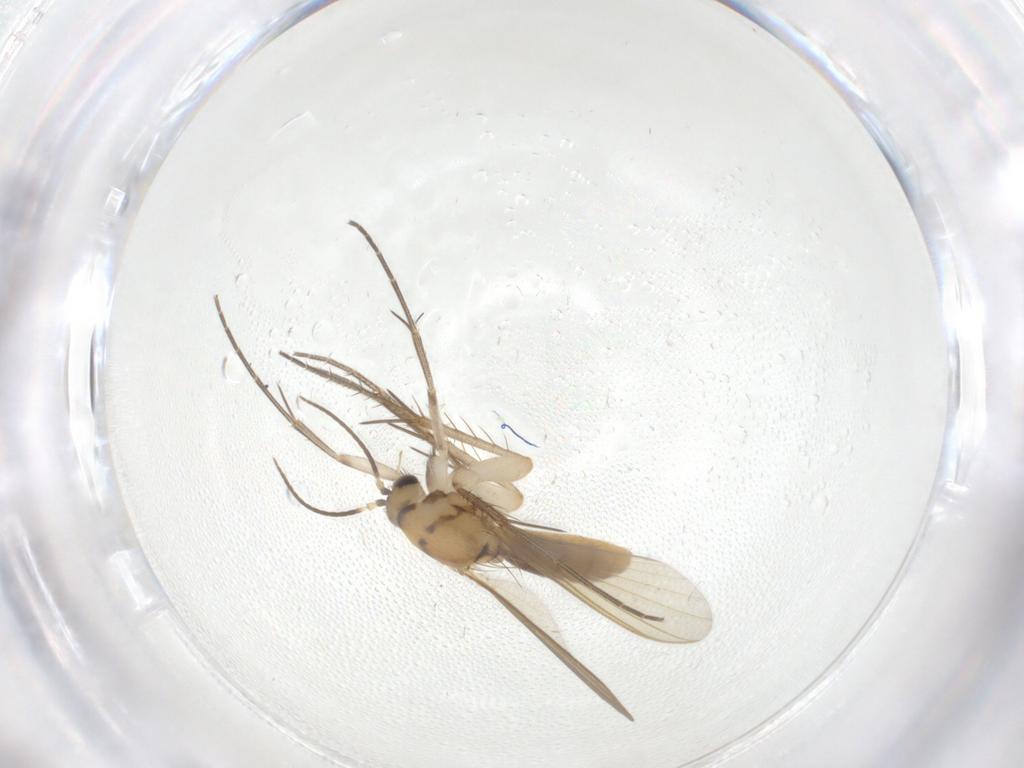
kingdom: Animalia
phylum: Arthropoda
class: Insecta
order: Diptera
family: Mycetophilidae
